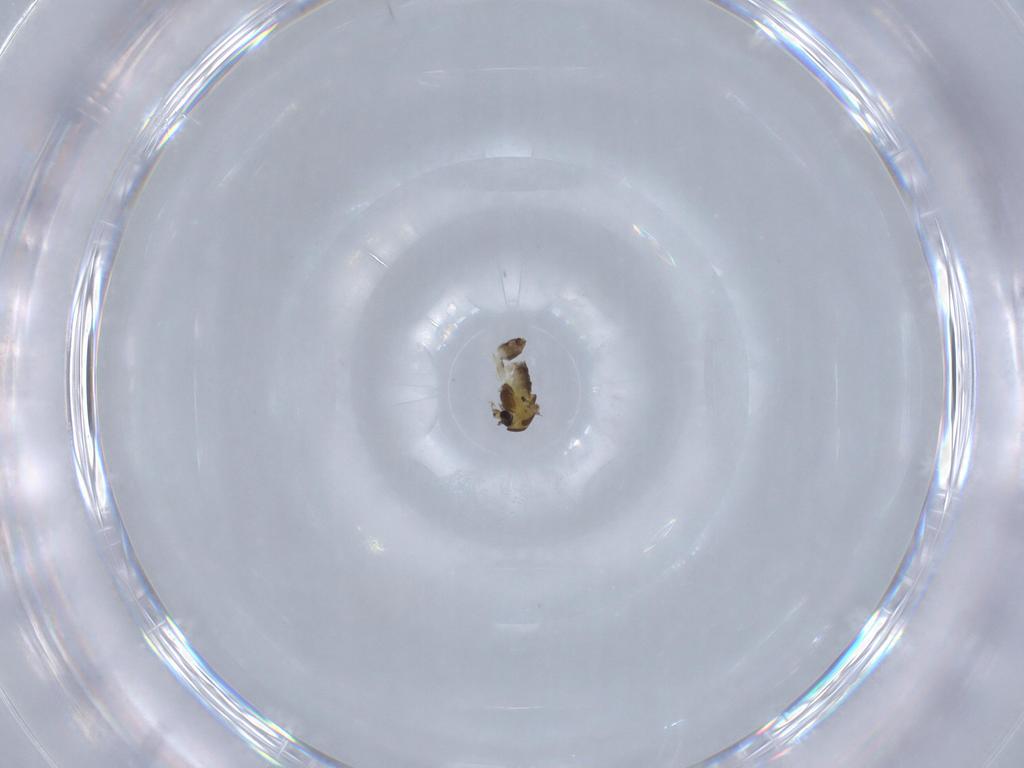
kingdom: Animalia
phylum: Arthropoda
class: Insecta
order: Diptera
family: Chironomidae
